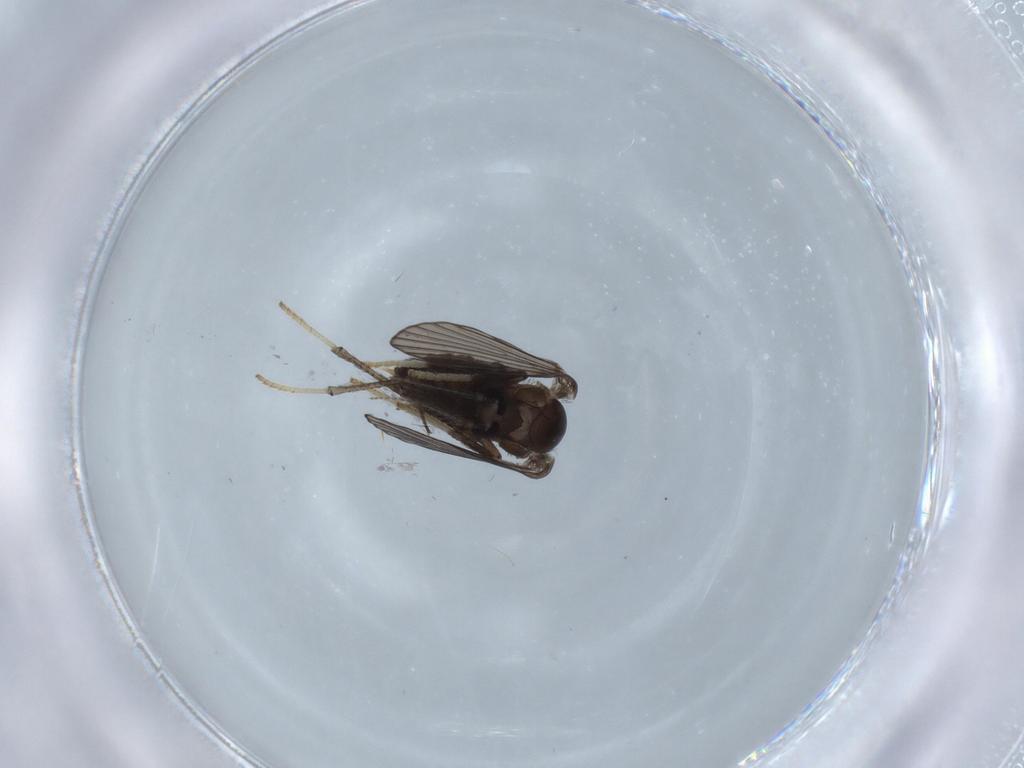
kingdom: Animalia
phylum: Arthropoda
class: Insecta
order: Diptera
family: Psychodidae
